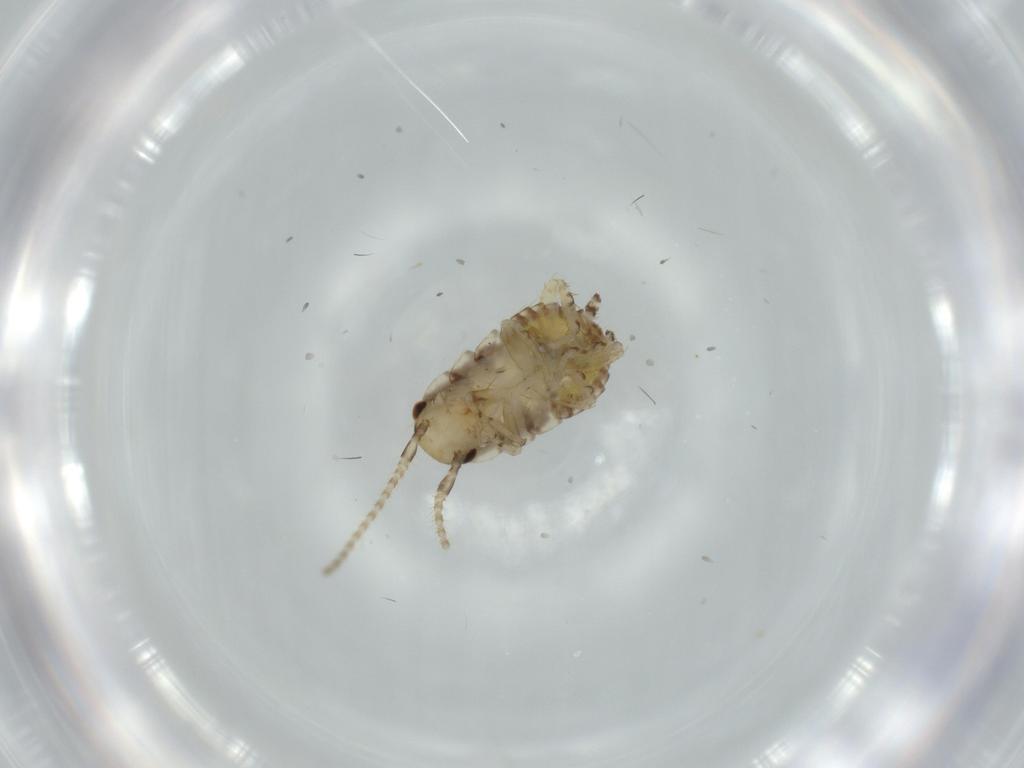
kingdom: Animalia
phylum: Arthropoda
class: Insecta
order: Blattodea
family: Ectobiidae
